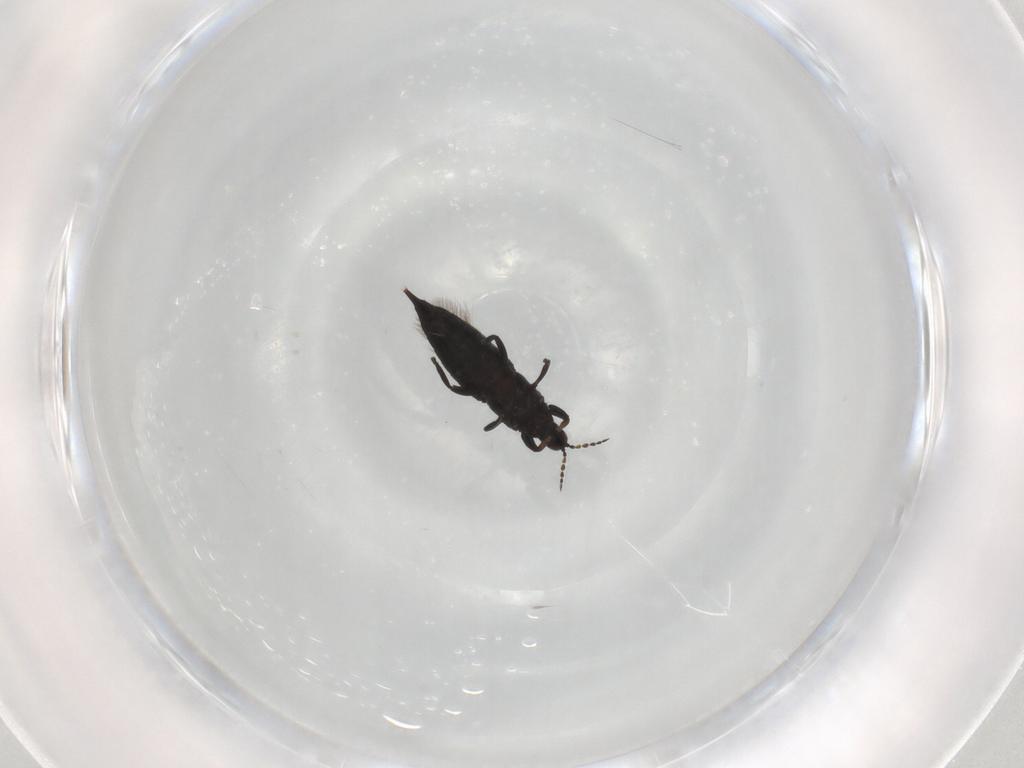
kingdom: Animalia
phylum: Arthropoda
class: Insecta
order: Thysanoptera
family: Phlaeothripidae
